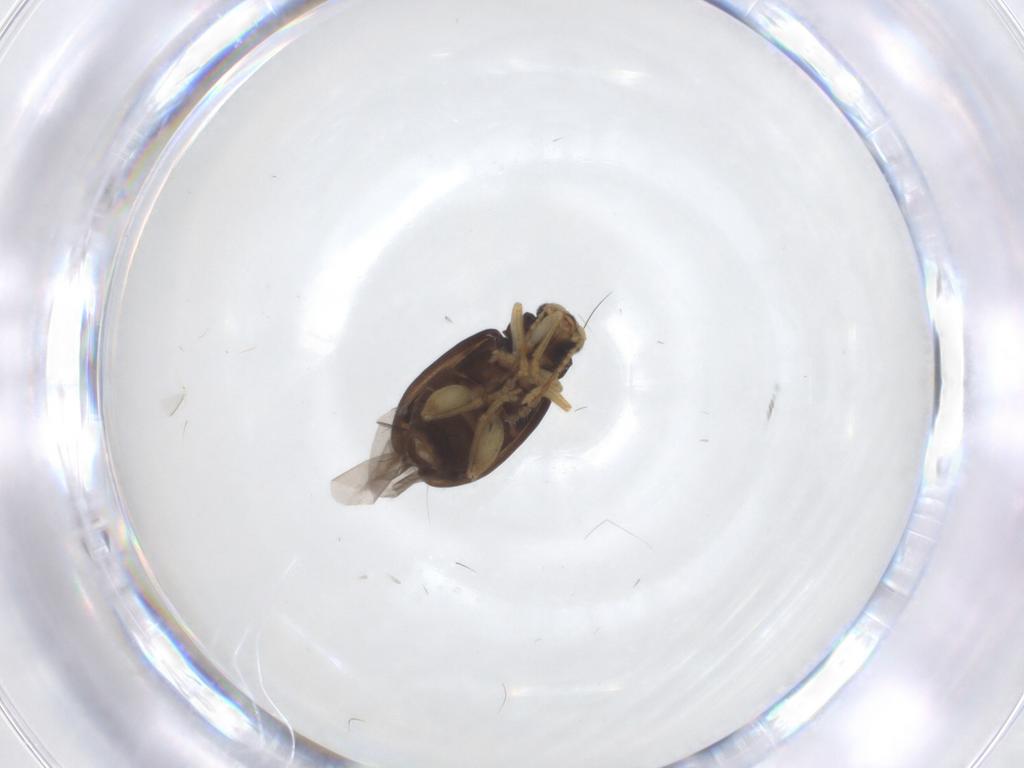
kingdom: Animalia
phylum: Arthropoda
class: Insecta
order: Coleoptera
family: Chrysomelidae
